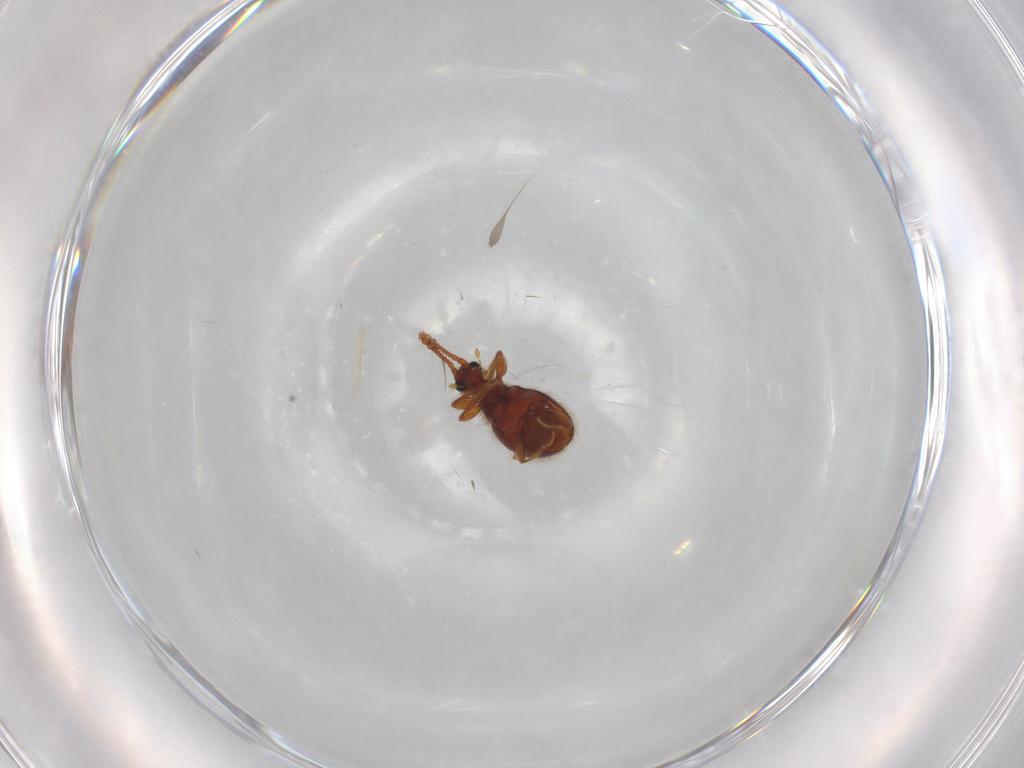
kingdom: Animalia
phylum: Arthropoda
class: Insecta
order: Coleoptera
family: Staphylinidae
